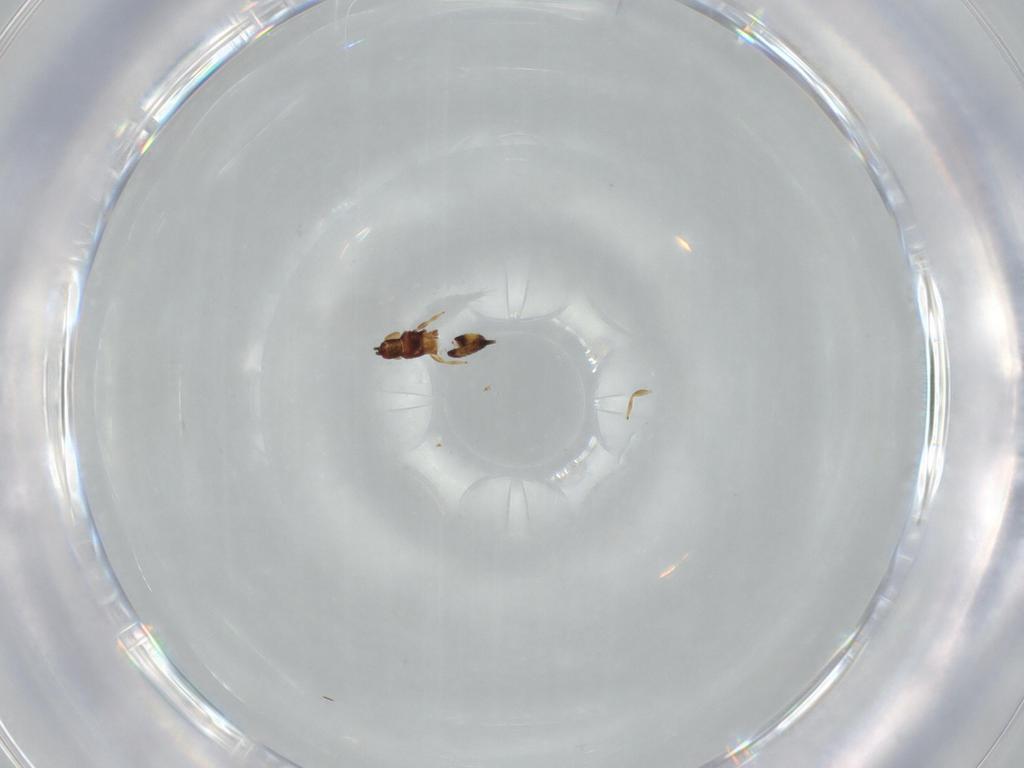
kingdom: Animalia
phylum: Arthropoda
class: Insecta
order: Thysanoptera
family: Phlaeothripidae
